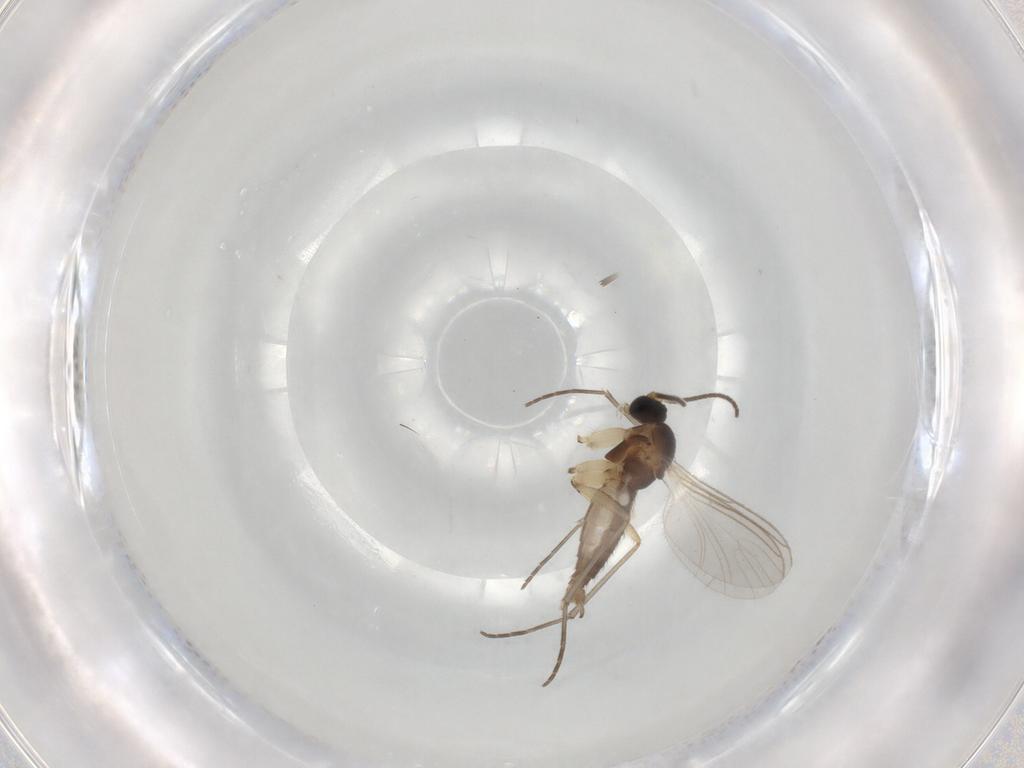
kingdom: Animalia
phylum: Arthropoda
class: Insecta
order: Diptera
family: Sciaridae
